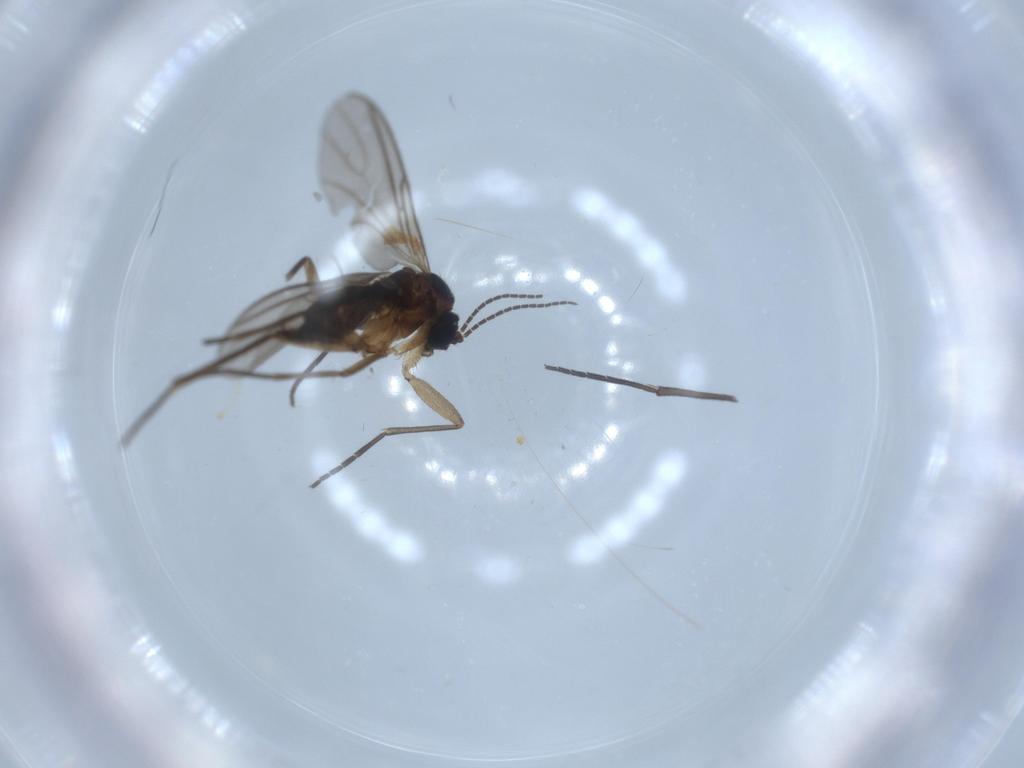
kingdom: Animalia
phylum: Arthropoda
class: Insecta
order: Diptera
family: Sciaridae
